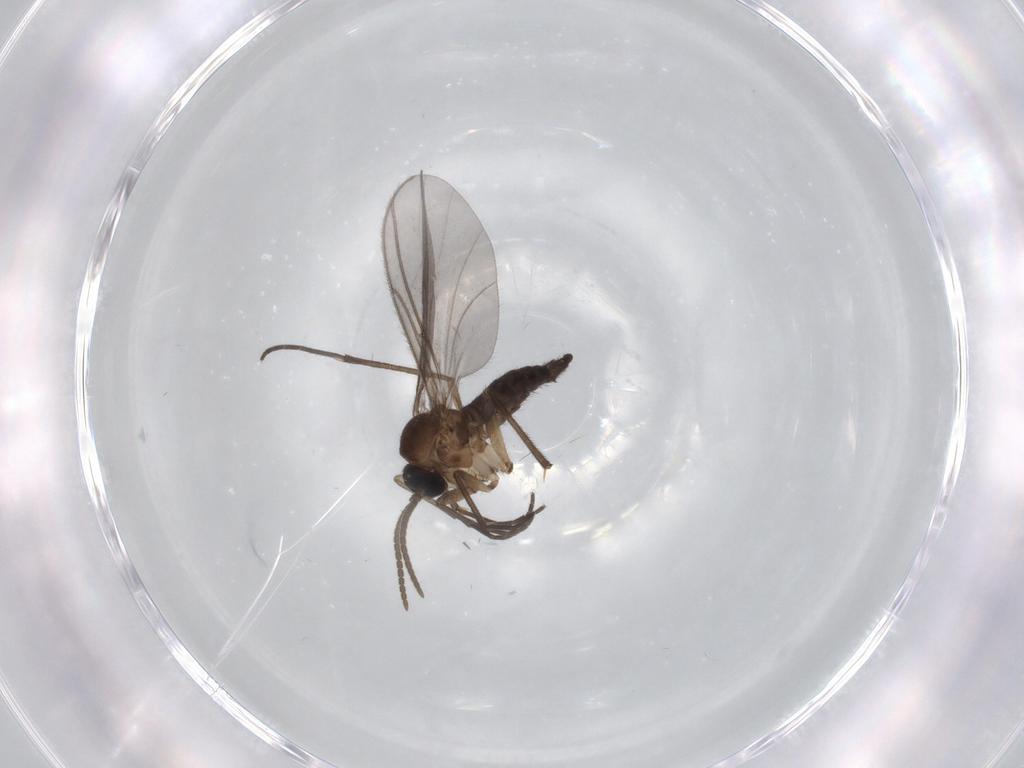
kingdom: Animalia
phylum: Arthropoda
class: Insecta
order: Diptera
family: Sciaridae
